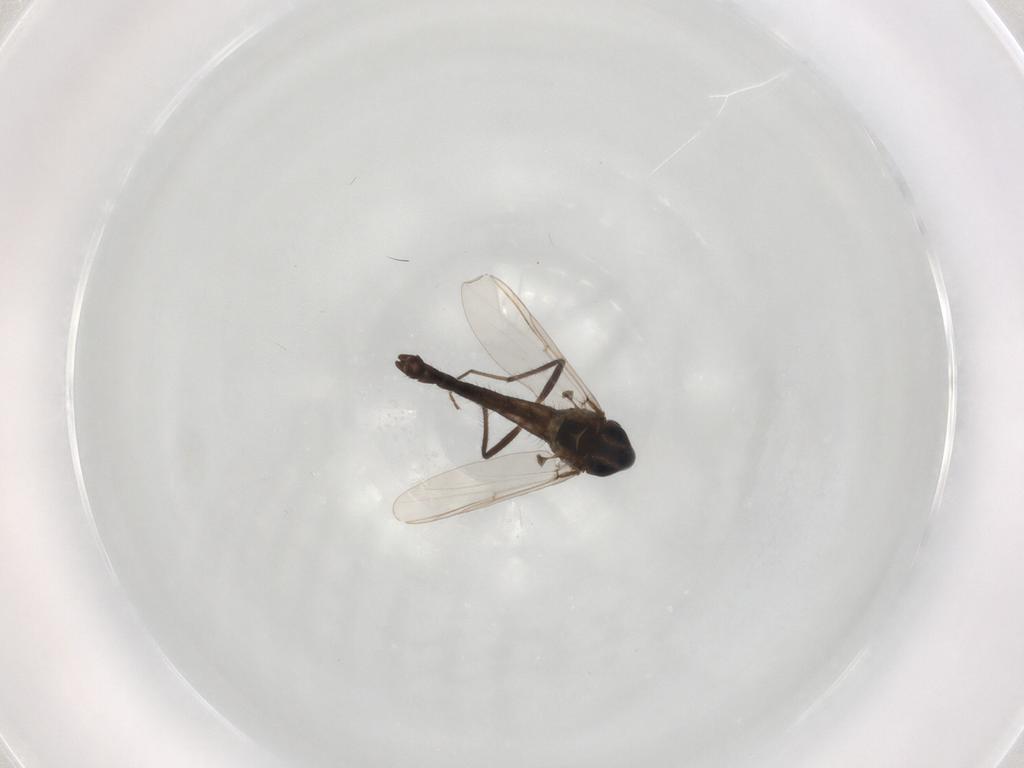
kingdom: Animalia
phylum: Arthropoda
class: Insecta
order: Diptera
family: Chironomidae
